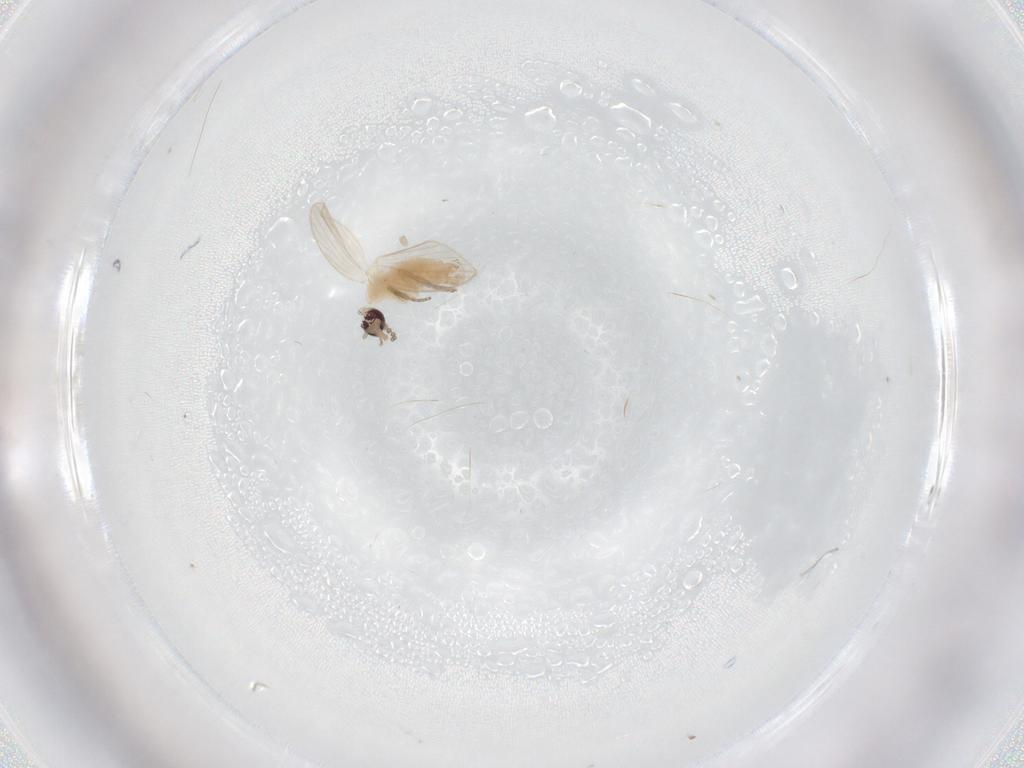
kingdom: Animalia
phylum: Arthropoda
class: Insecta
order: Diptera
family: Psychodidae
